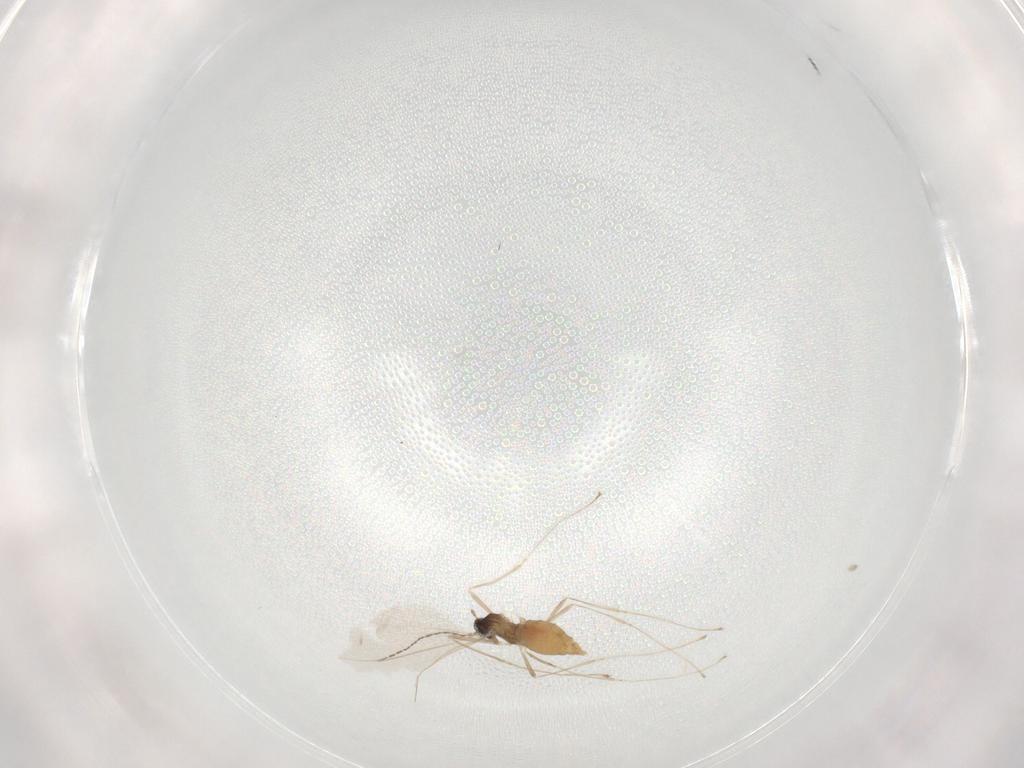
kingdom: Animalia
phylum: Arthropoda
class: Insecta
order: Diptera
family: Cecidomyiidae
